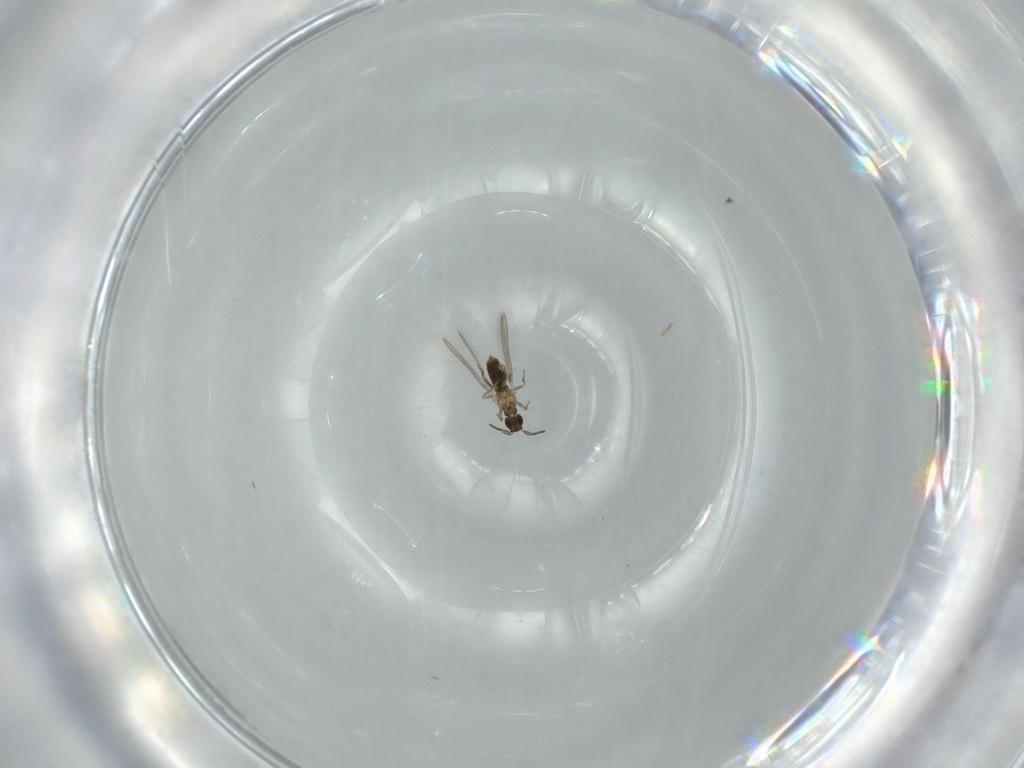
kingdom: Animalia
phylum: Arthropoda
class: Insecta
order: Hymenoptera
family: Mymaridae
